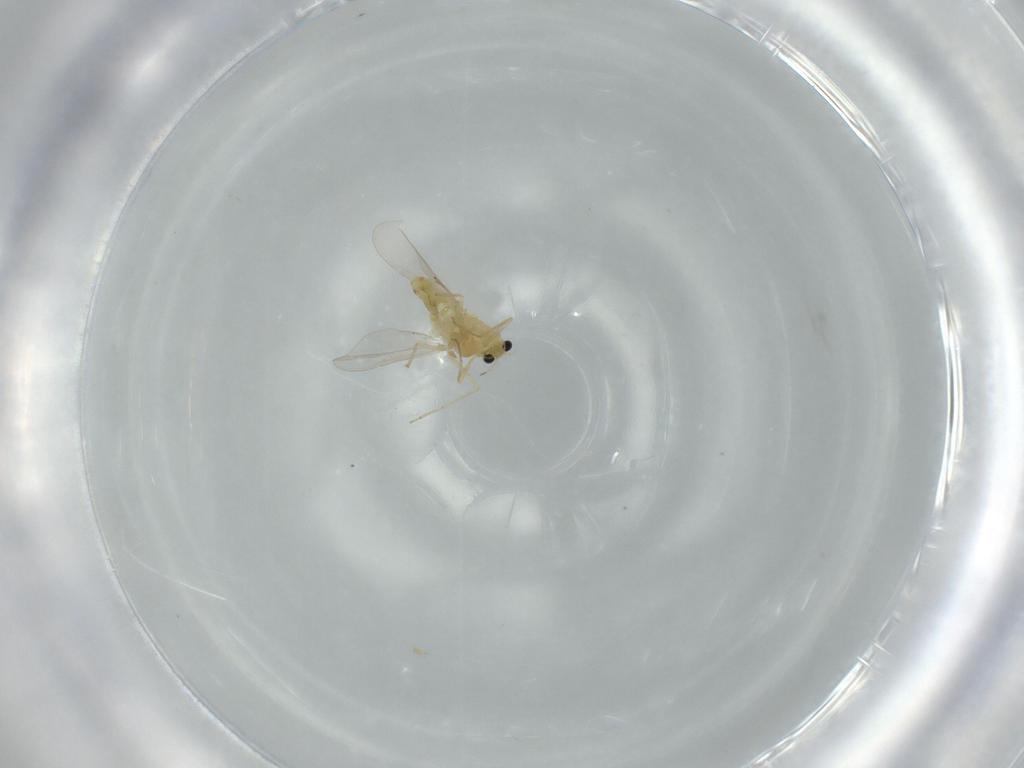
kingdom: Animalia
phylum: Arthropoda
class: Insecta
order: Diptera
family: Chironomidae
